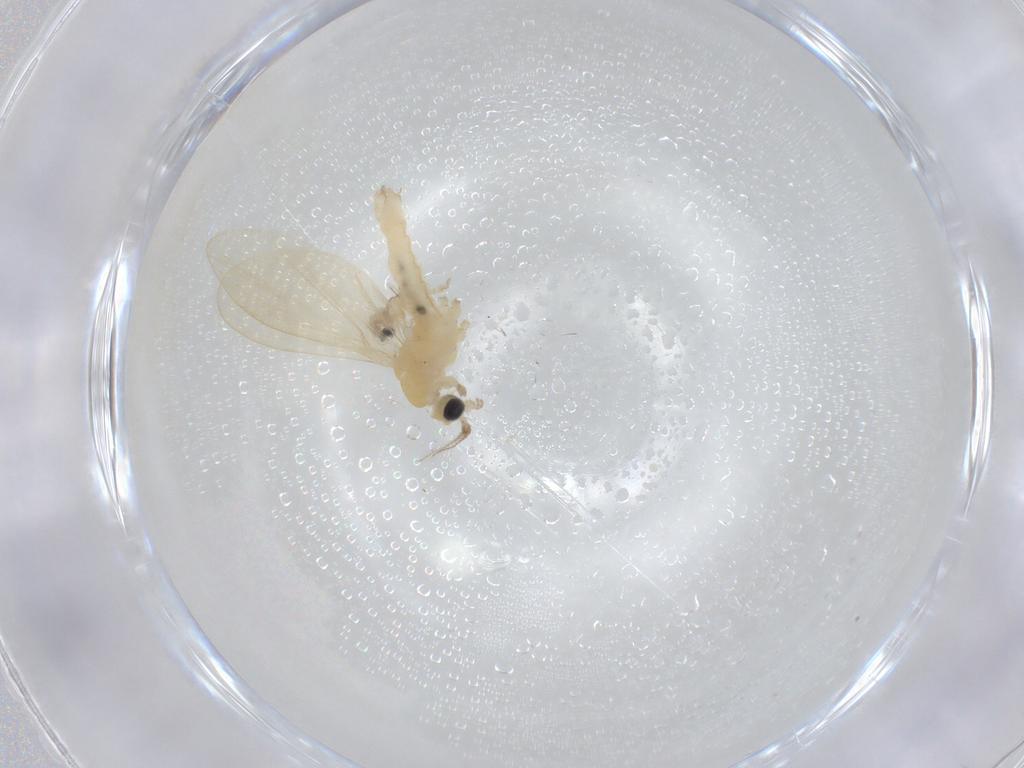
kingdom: Animalia
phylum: Arthropoda
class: Insecta
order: Diptera
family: Limoniidae
